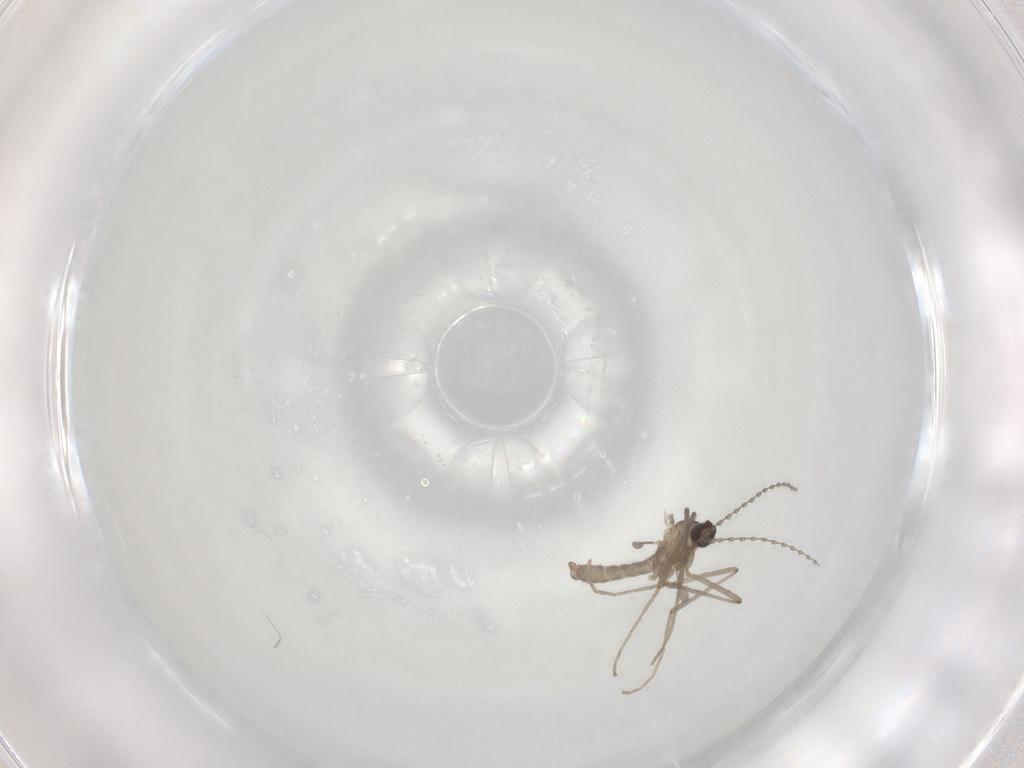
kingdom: Animalia
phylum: Arthropoda
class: Insecta
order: Diptera
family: Cecidomyiidae
